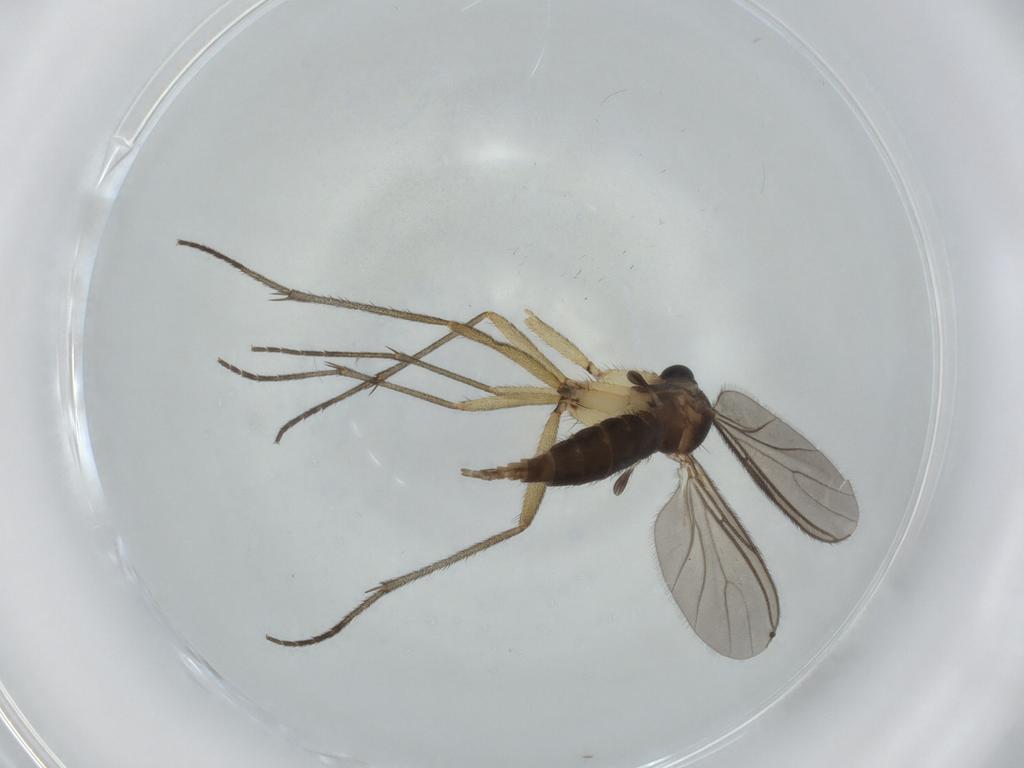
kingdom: Animalia
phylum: Arthropoda
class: Insecta
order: Diptera
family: Sciaridae
